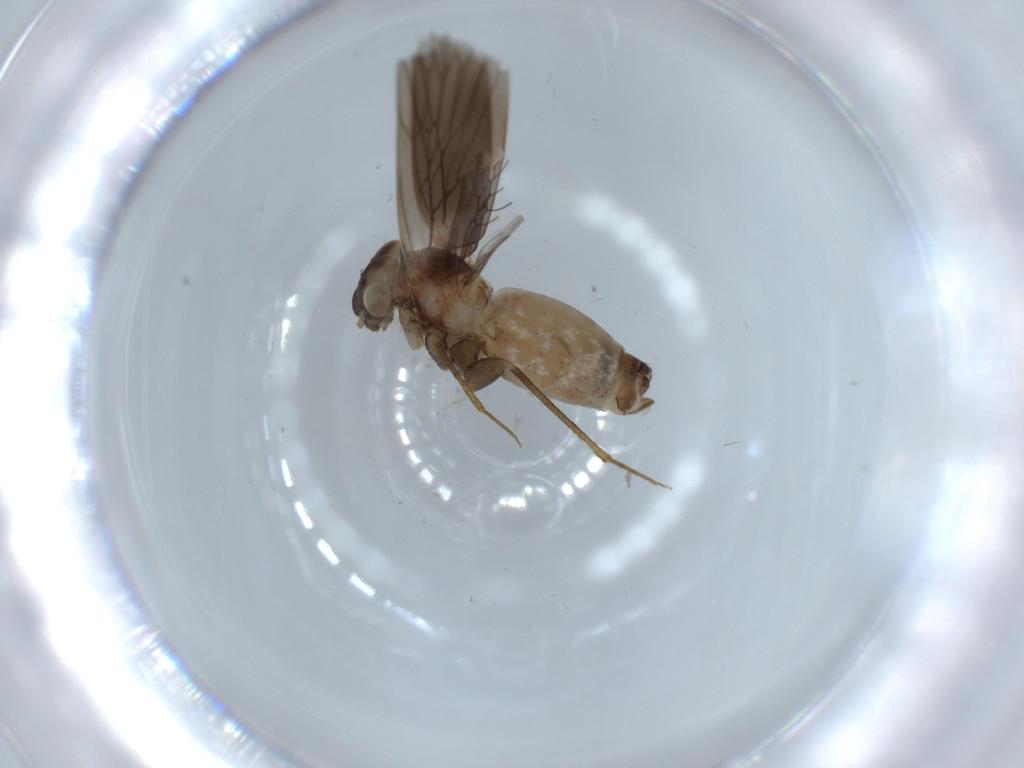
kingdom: Animalia
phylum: Arthropoda
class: Insecta
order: Psocodea
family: Lepidopsocidae
